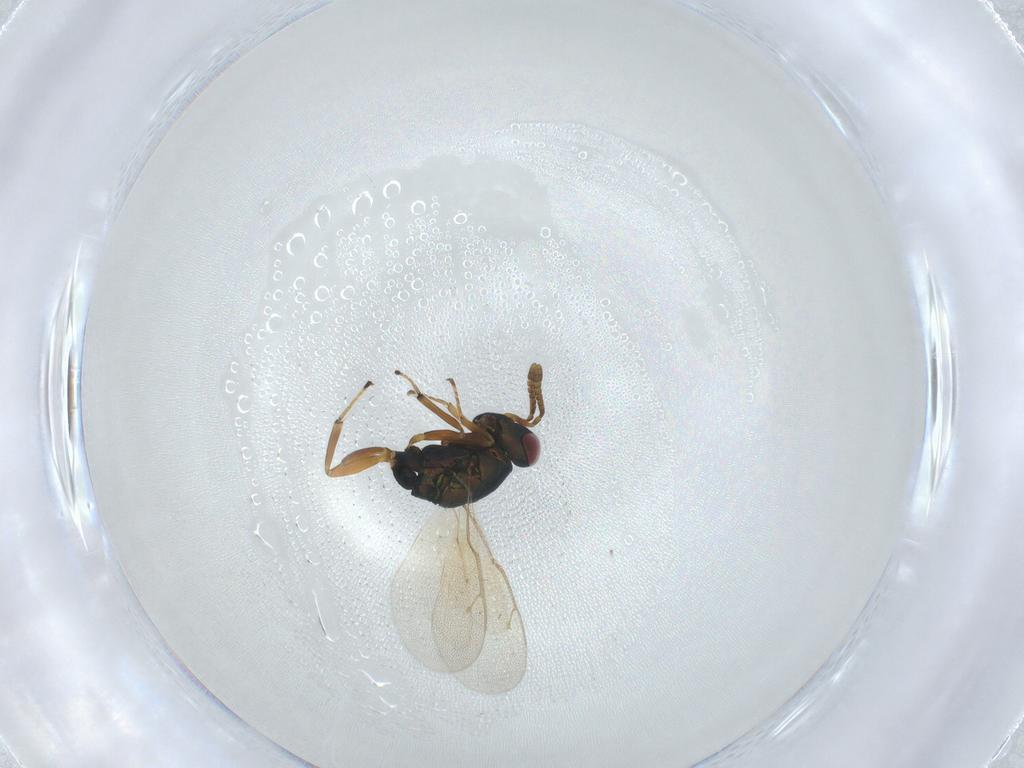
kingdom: Animalia
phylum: Arthropoda
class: Insecta
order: Hymenoptera
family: Pteromalidae
